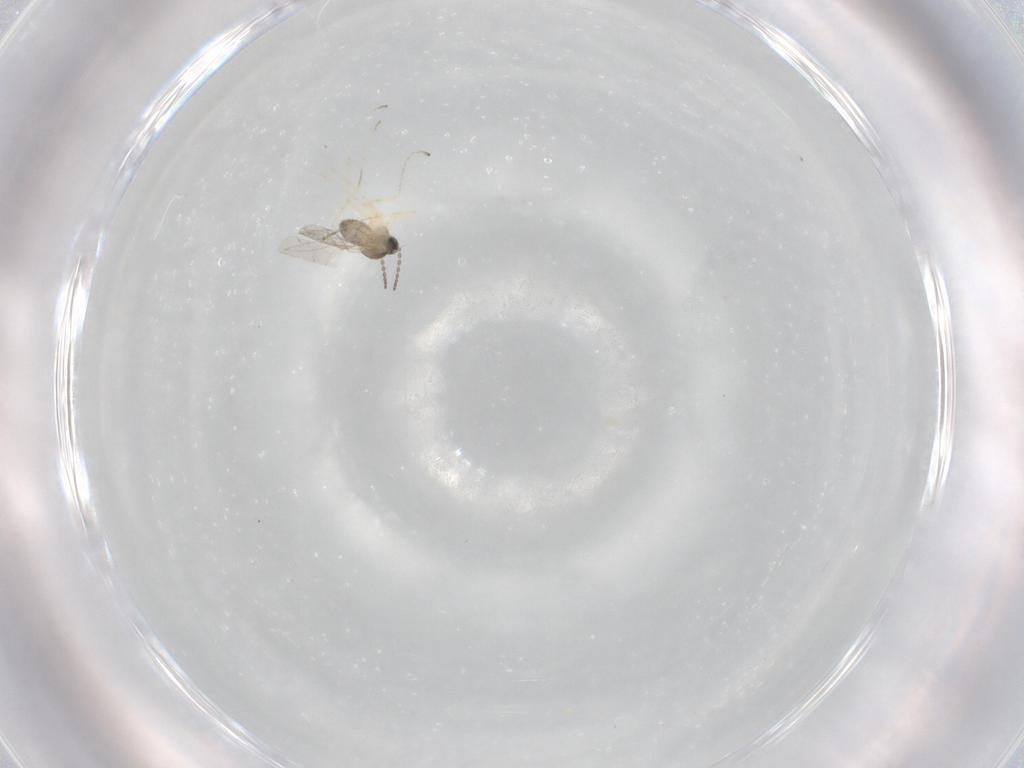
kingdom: Animalia
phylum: Arthropoda
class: Insecta
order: Diptera
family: Cecidomyiidae
